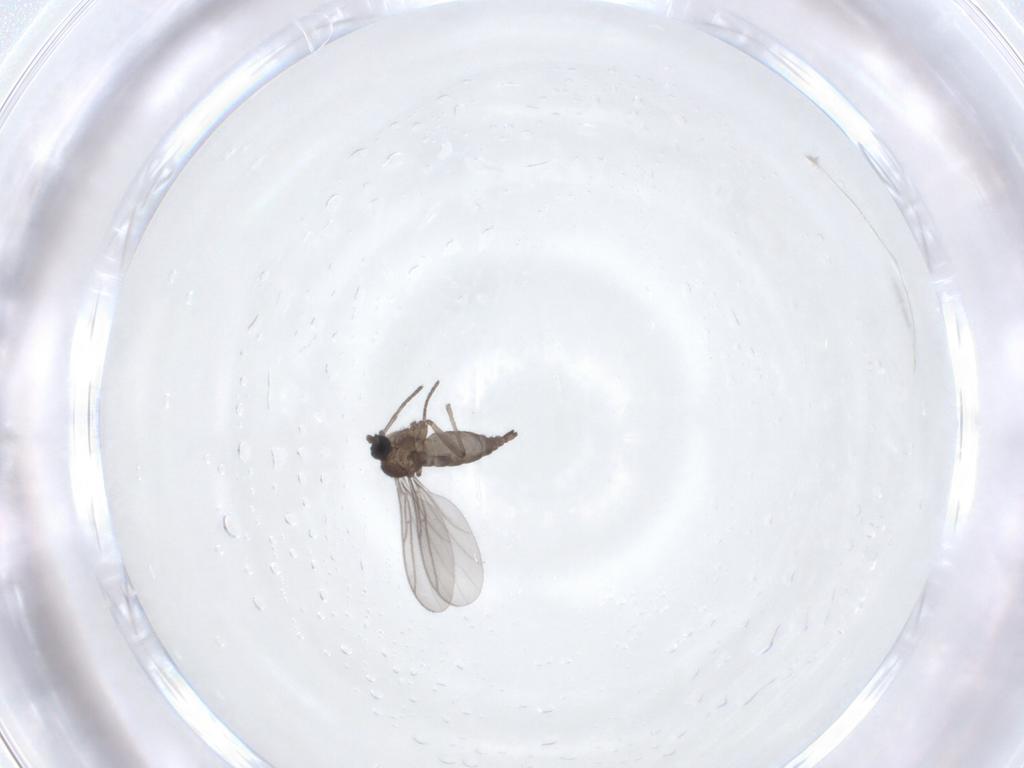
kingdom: Animalia
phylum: Arthropoda
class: Insecta
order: Diptera
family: Sciaridae
